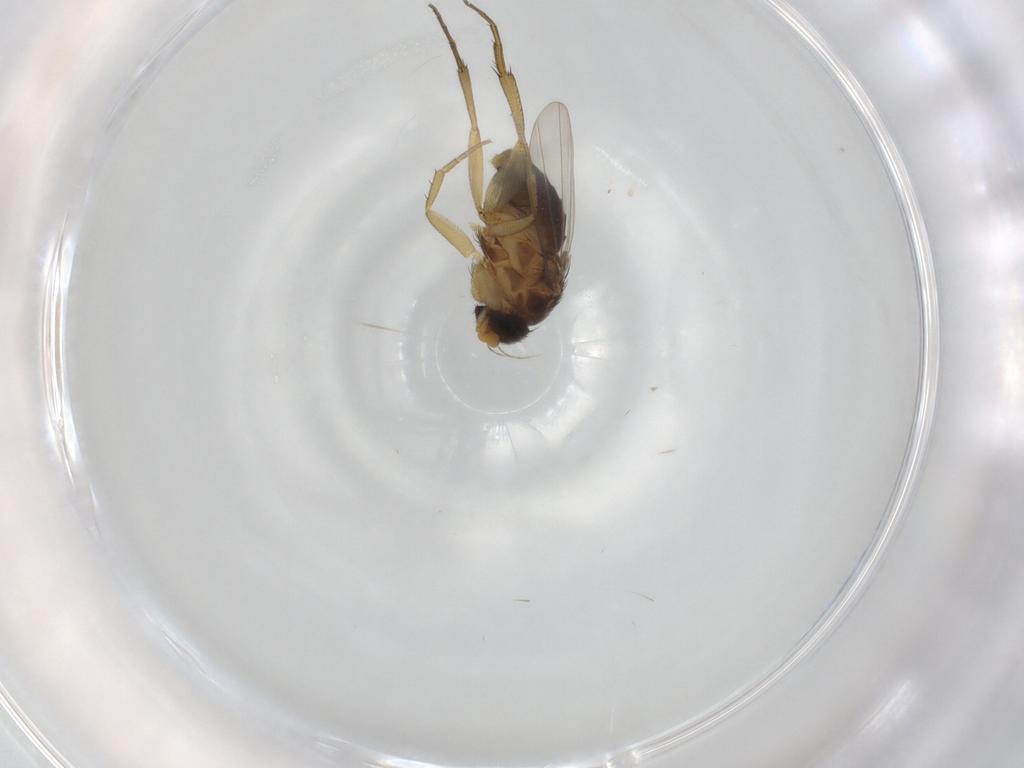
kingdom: Animalia
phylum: Arthropoda
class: Insecta
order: Diptera
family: Phoridae
